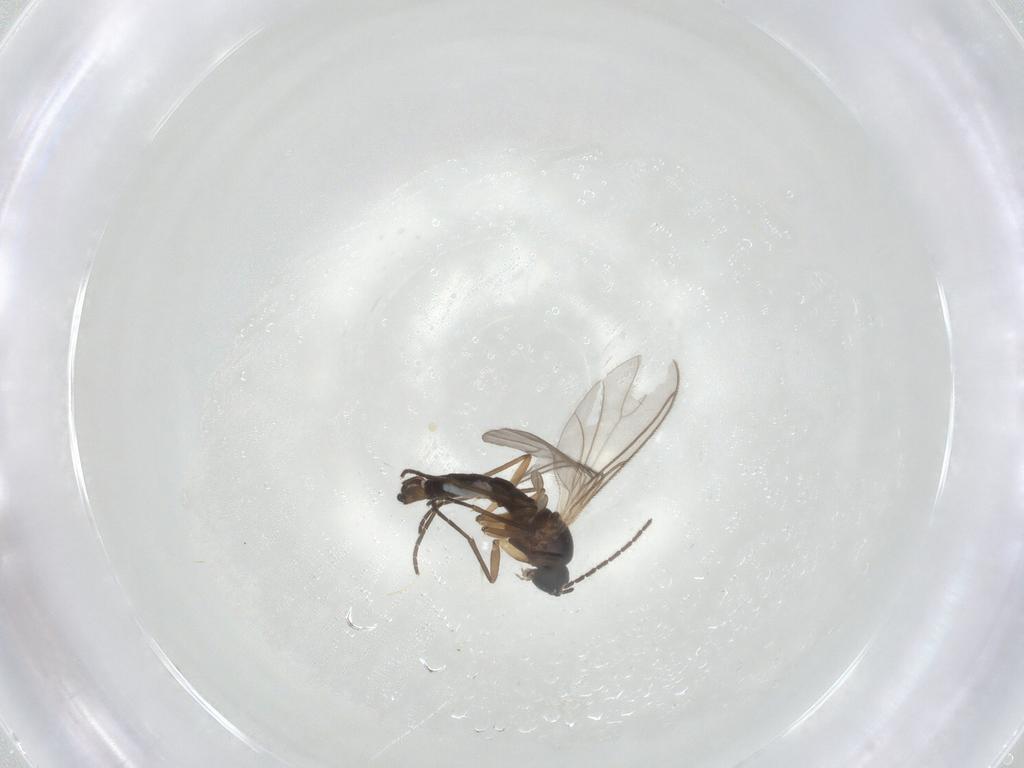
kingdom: Animalia
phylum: Arthropoda
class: Insecta
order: Diptera
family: Sciaridae
